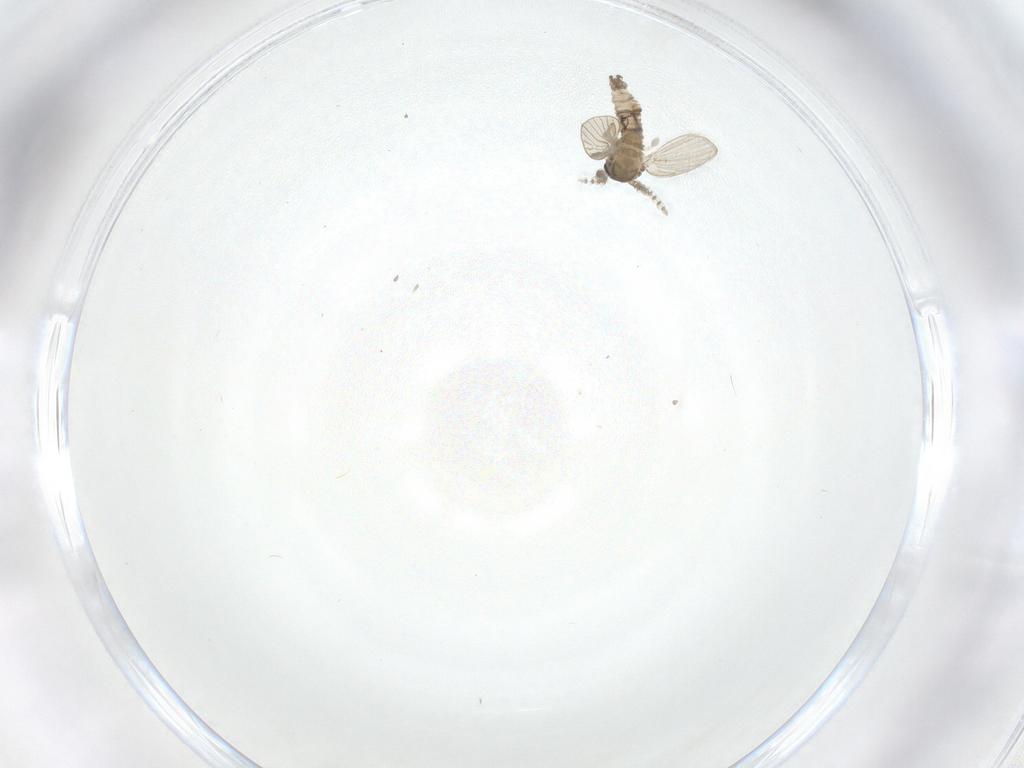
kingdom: Animalia
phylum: Arthropoda
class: Insecta
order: Diptera
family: Psychodidae
